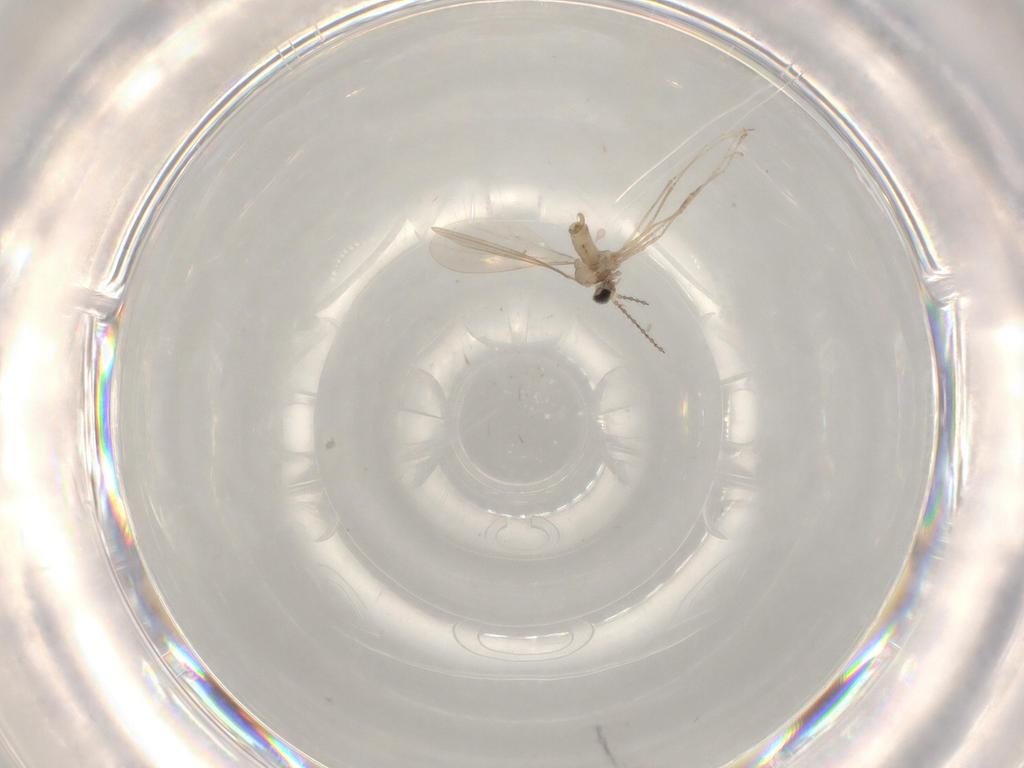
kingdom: Animalia
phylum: Arthropoda
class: Insecta
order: Diptera
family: Cecidomyiidae
